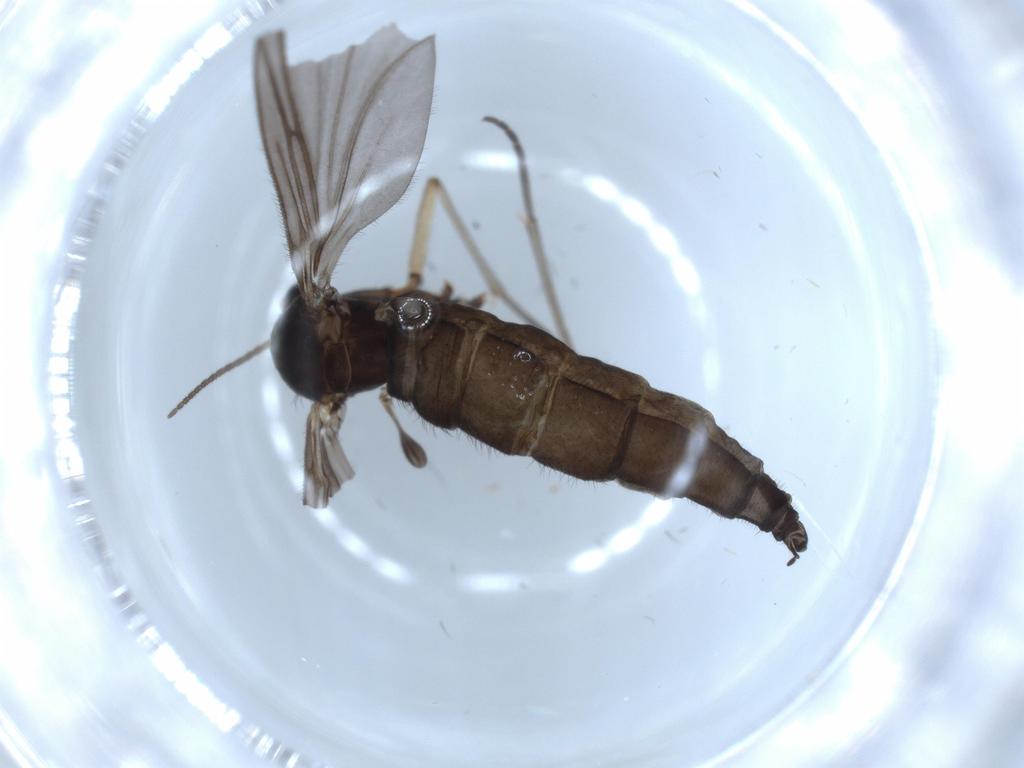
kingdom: Animalia
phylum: Arthropoda
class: Insecta
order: Diptera
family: Sciaridae
